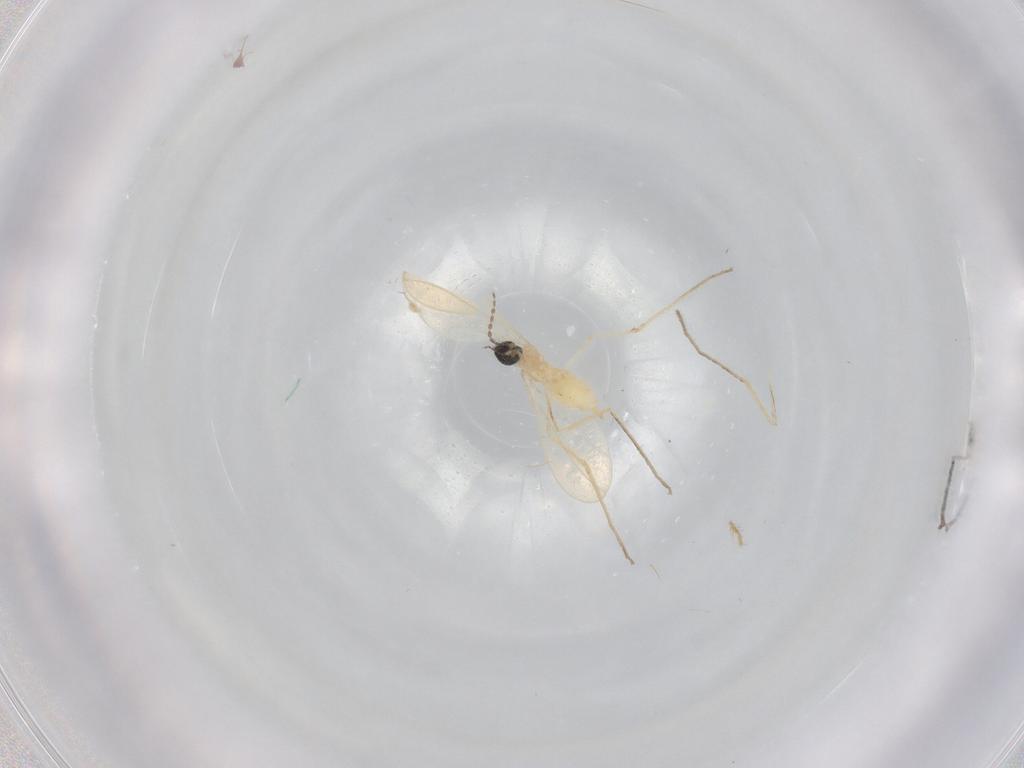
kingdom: Animalia
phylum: Arthropoda
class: Insecta
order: Diptera
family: Cecidomyiidae
